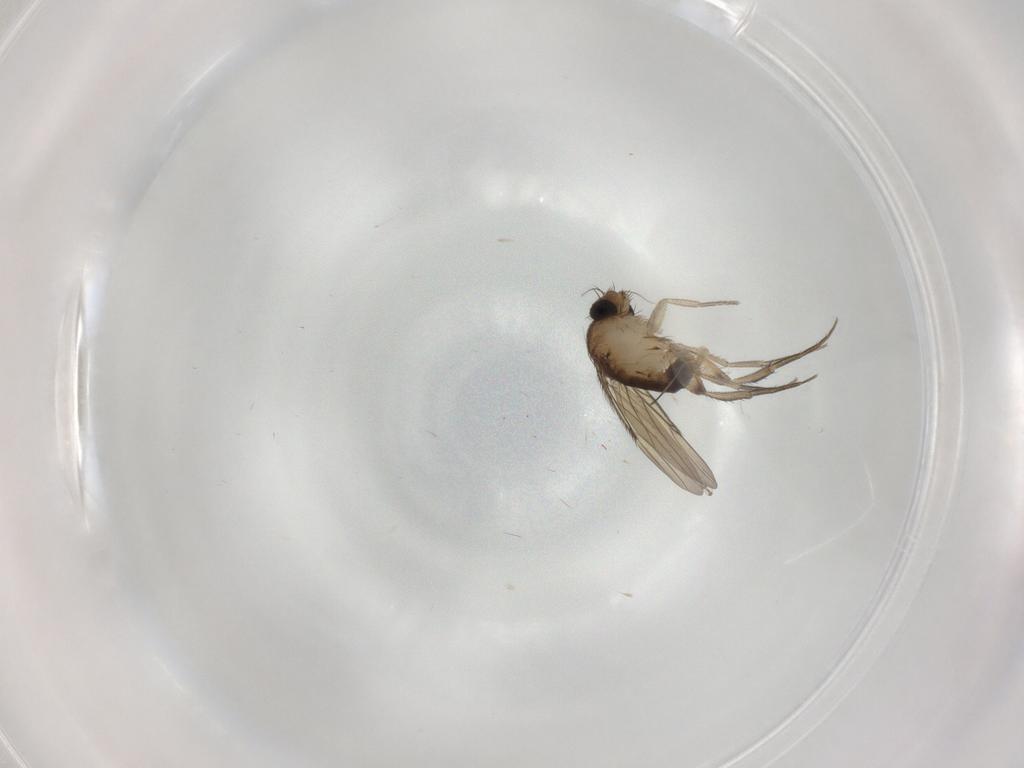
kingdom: Animalia
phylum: Arthropoda
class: Insecta
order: Diptera
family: Phoridae
